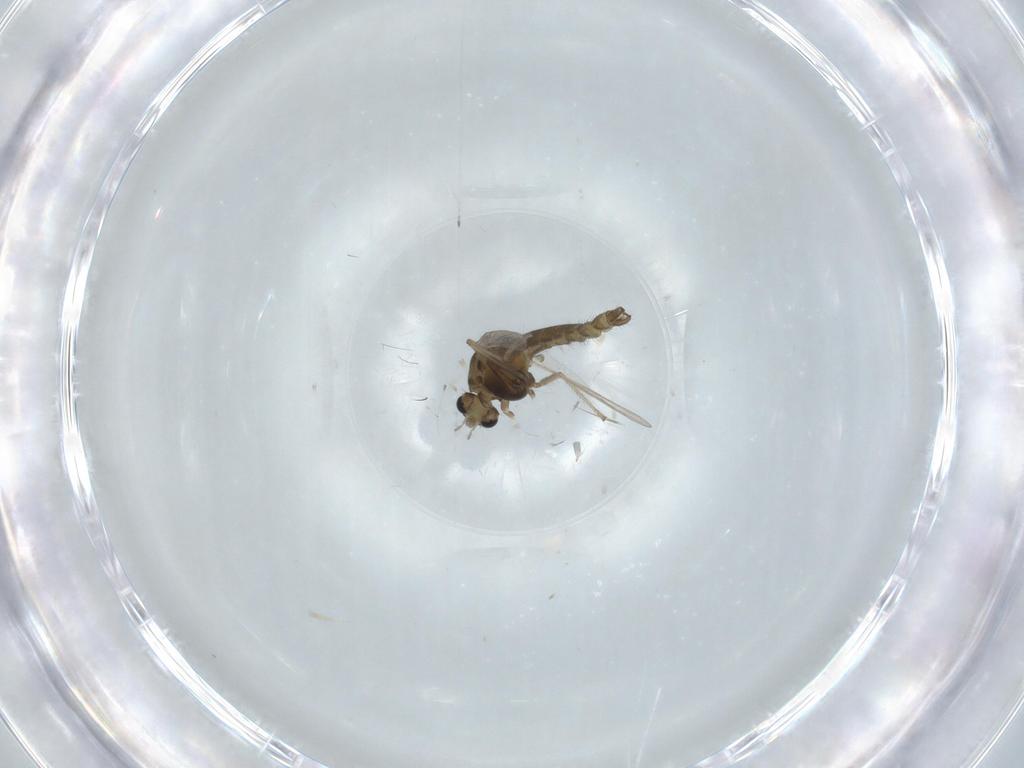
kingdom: Animalia
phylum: Arthropoda
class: Insecta
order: Diptera
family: Chironomidae
